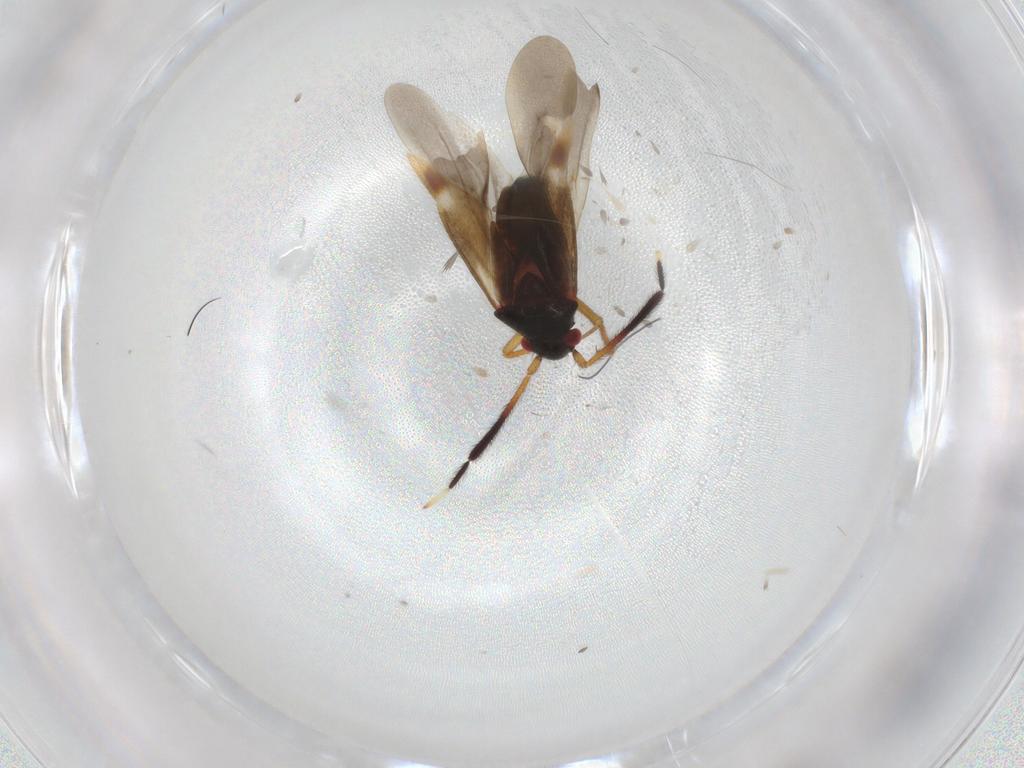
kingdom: Animalia
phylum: Arthropoda
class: Insecta
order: Hemiptera
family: Miridae
